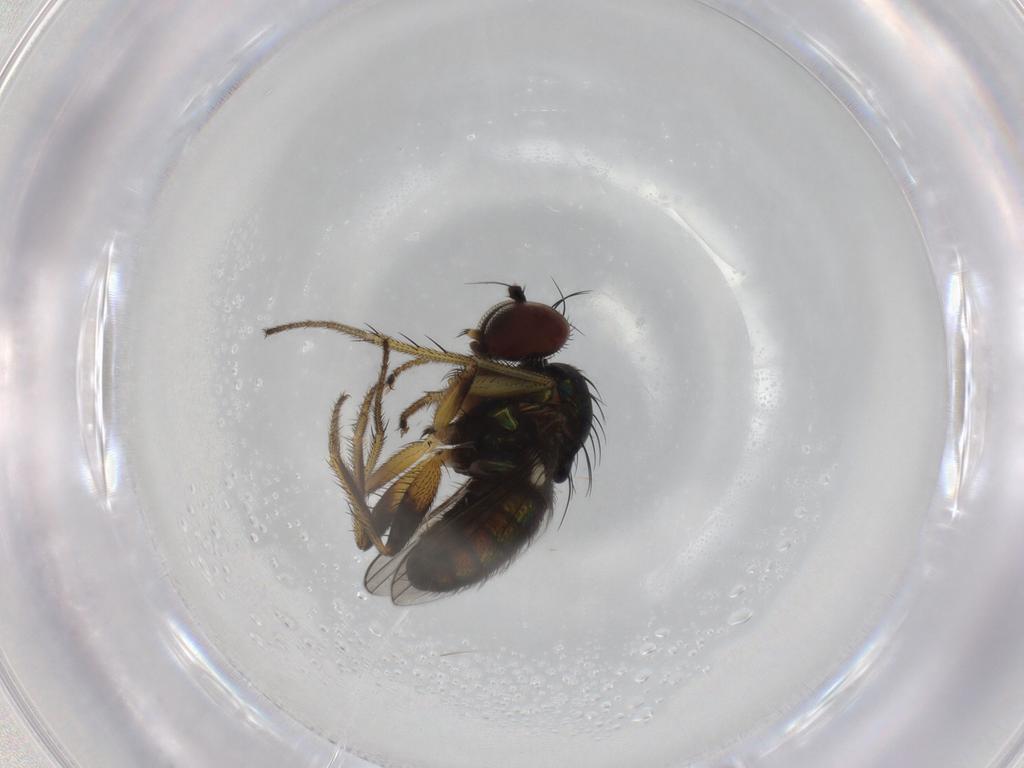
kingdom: Animalia
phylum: Arthropoda
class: Insecta
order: Diptera
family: Dolichopodidae
